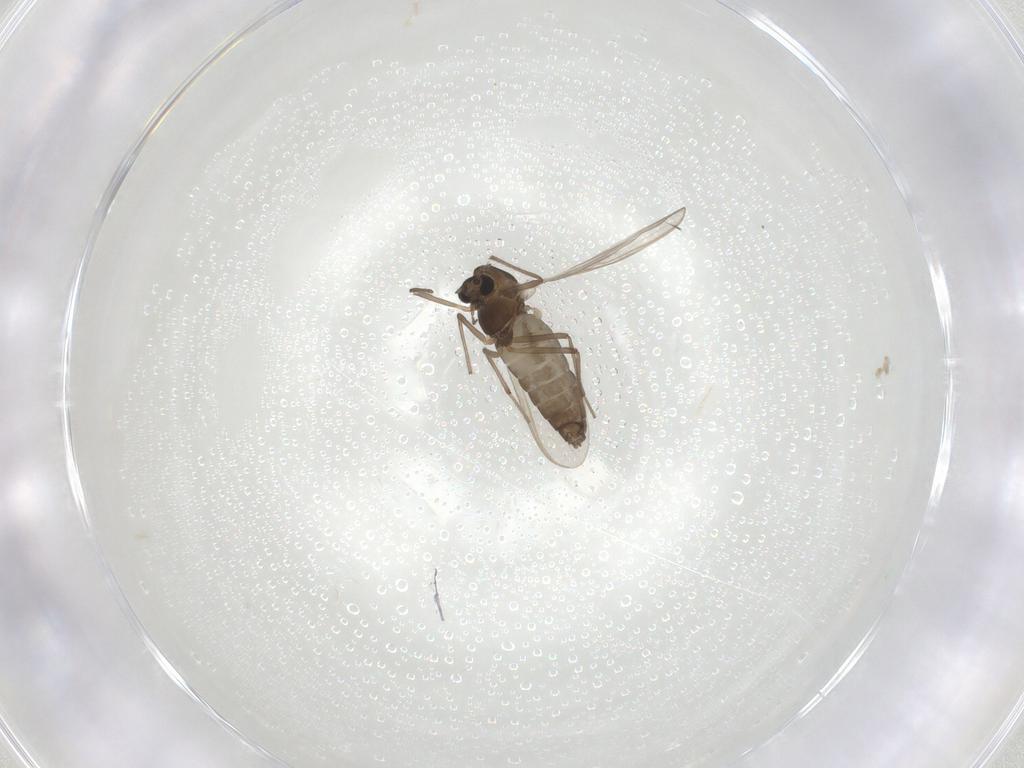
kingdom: Animalia
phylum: Arthropoda
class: Insecta
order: Diptera
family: Chironomidae
